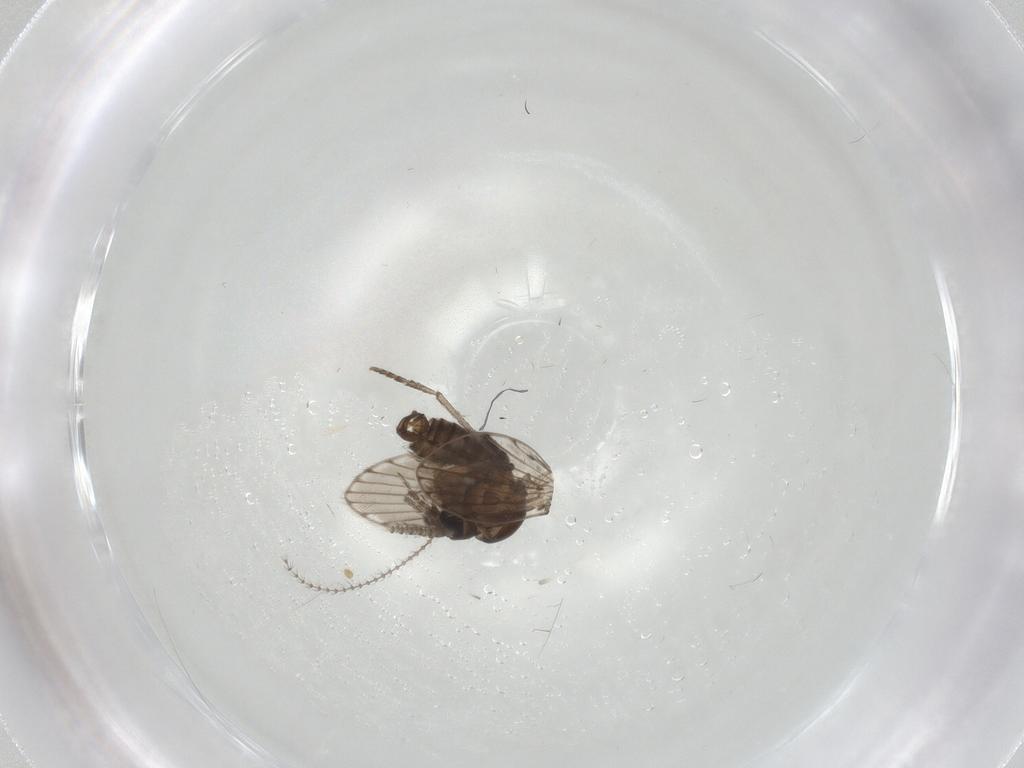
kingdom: Animalia
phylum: Arthropoda
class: Insecta
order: Diptera
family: Psychodidae
